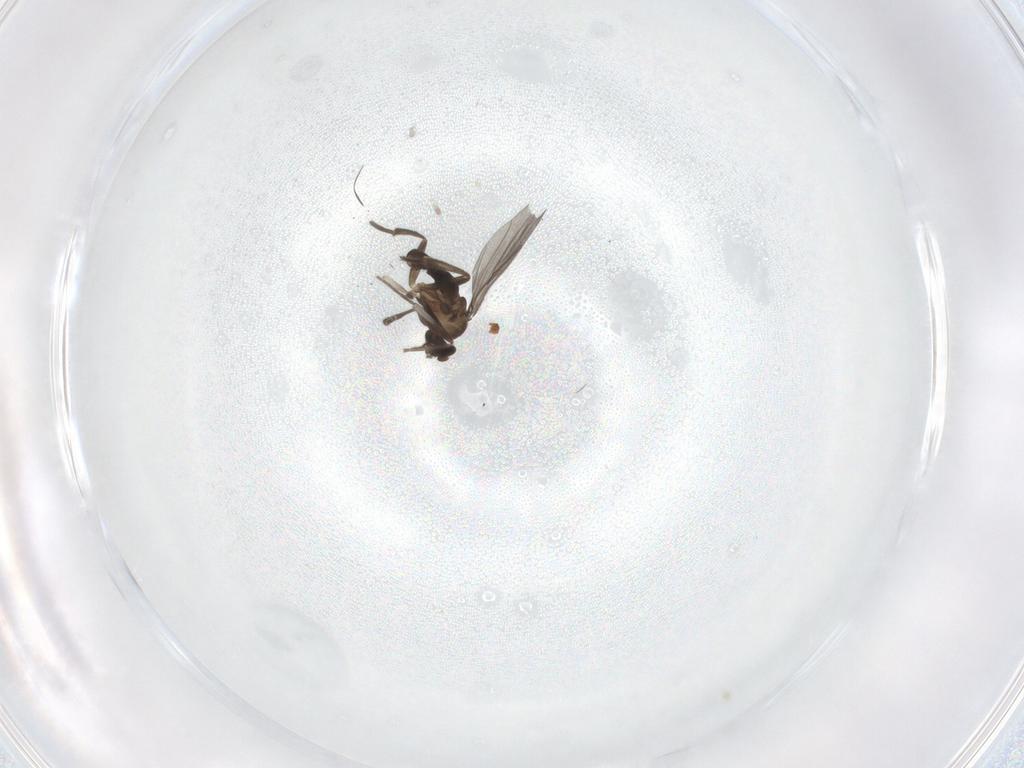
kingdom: Animalia
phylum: Arthropoda
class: Insecta
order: Diptera
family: Phoridae
